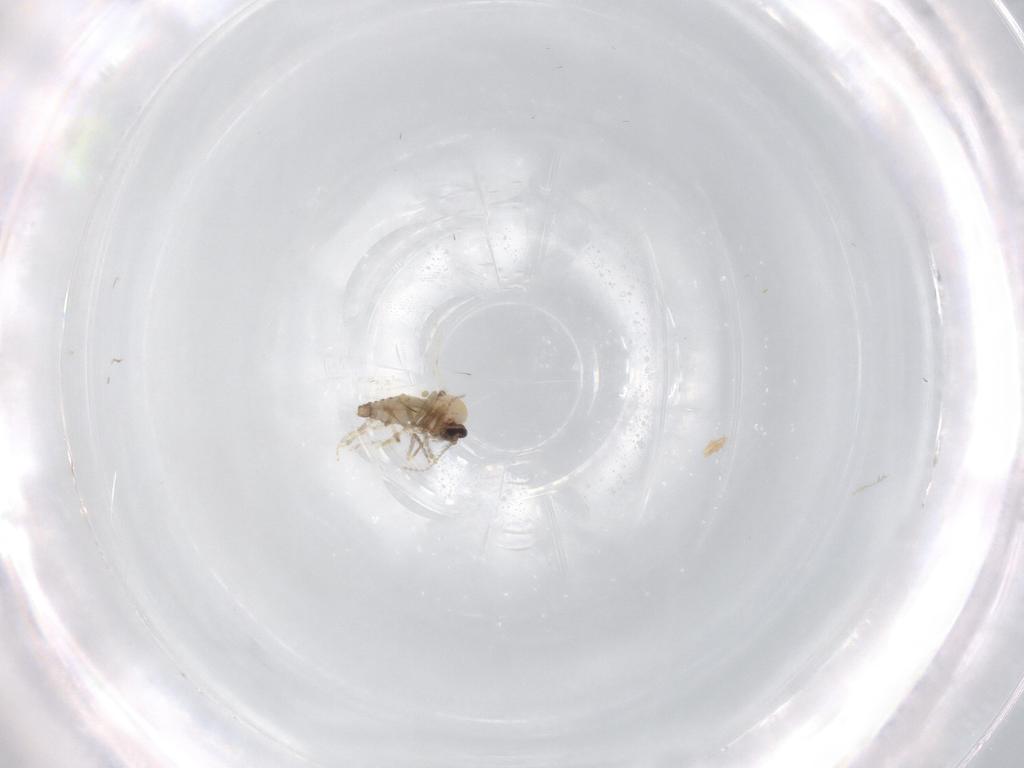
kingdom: Animalia
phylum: Arthropoda
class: Insecta
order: Diptera
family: Ceratopogonidae
